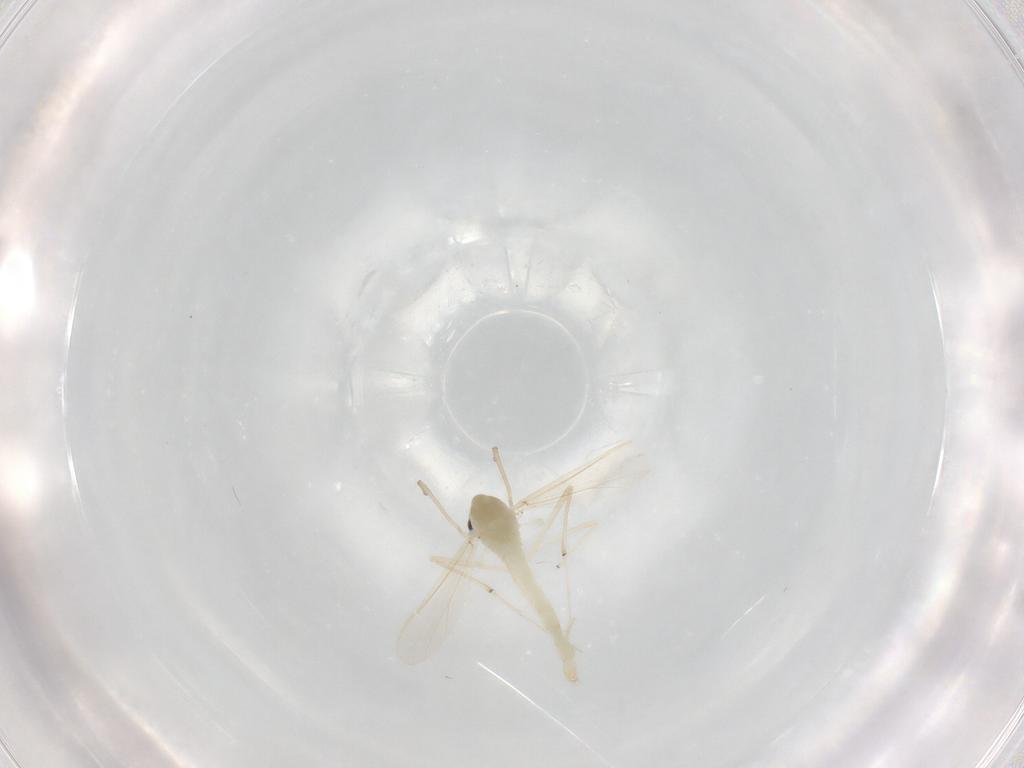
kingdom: Animalia
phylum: Arthropoda
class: Insecta
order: Diptera
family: Chironomidae
